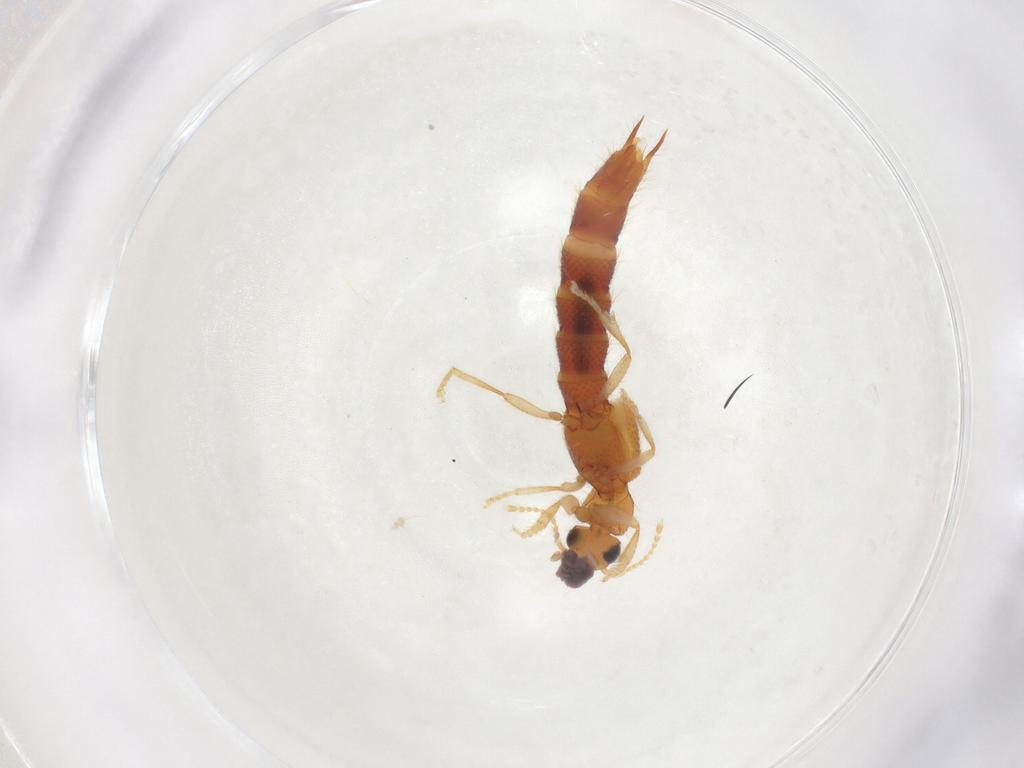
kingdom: Animalia
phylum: Arthropoda
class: Insecta
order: Coleoptera
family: Staphylinidae
